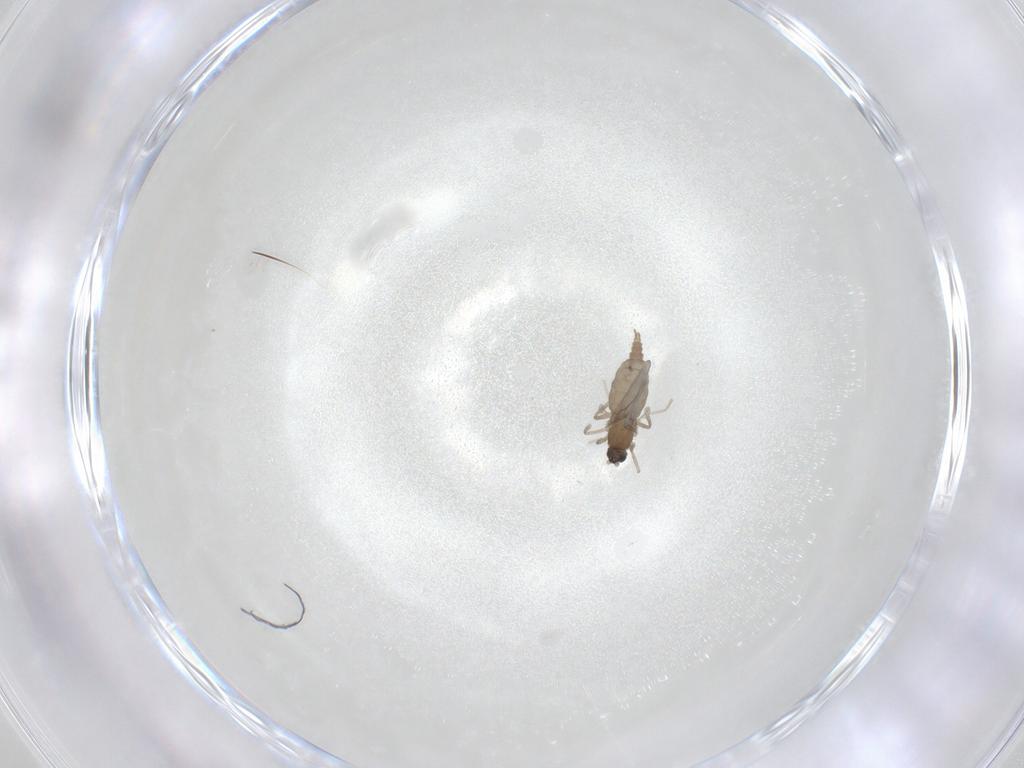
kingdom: Animalia
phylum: Arthropoda
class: Insecta
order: Diptera
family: Cecidomyiidae
